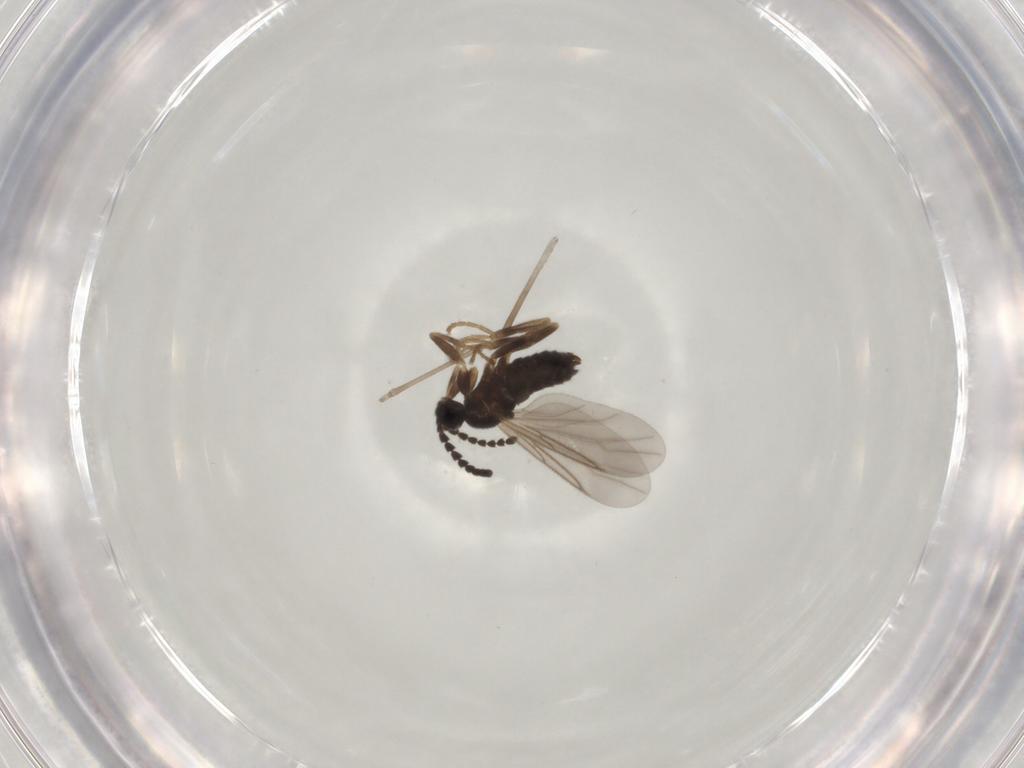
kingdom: Animalia
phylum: Arthropoda
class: Insecta
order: Diptera
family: Scatopsidae
